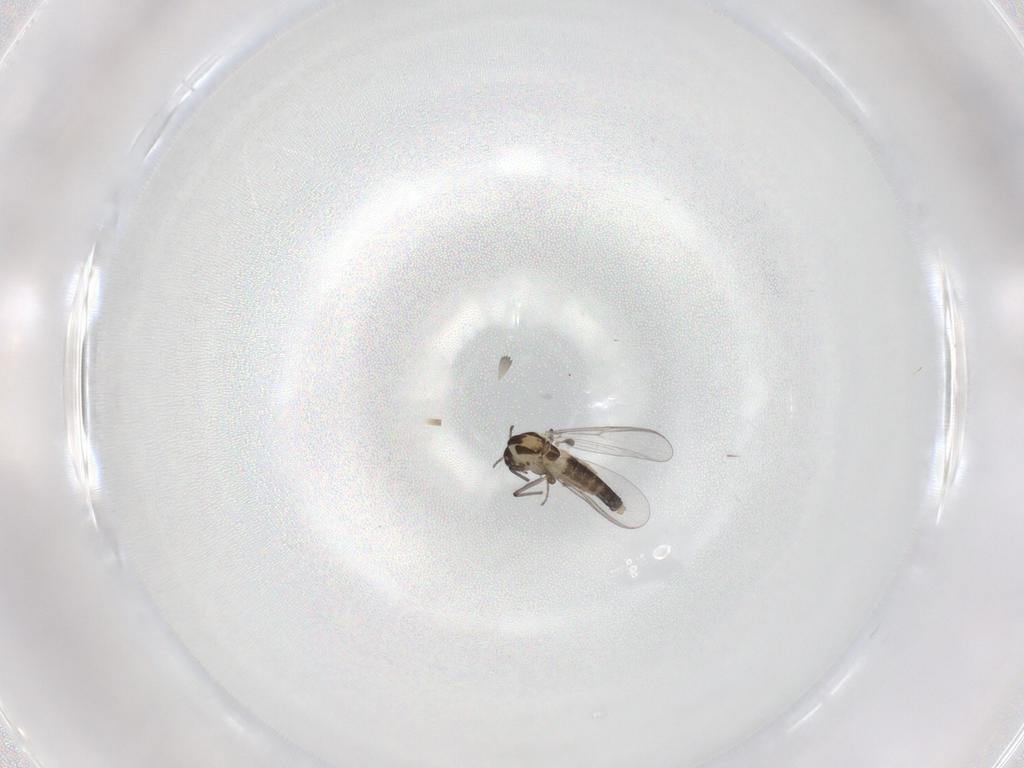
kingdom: Animalia
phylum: Arthropoda
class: Insecta
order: Diptera
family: Chironomidae
